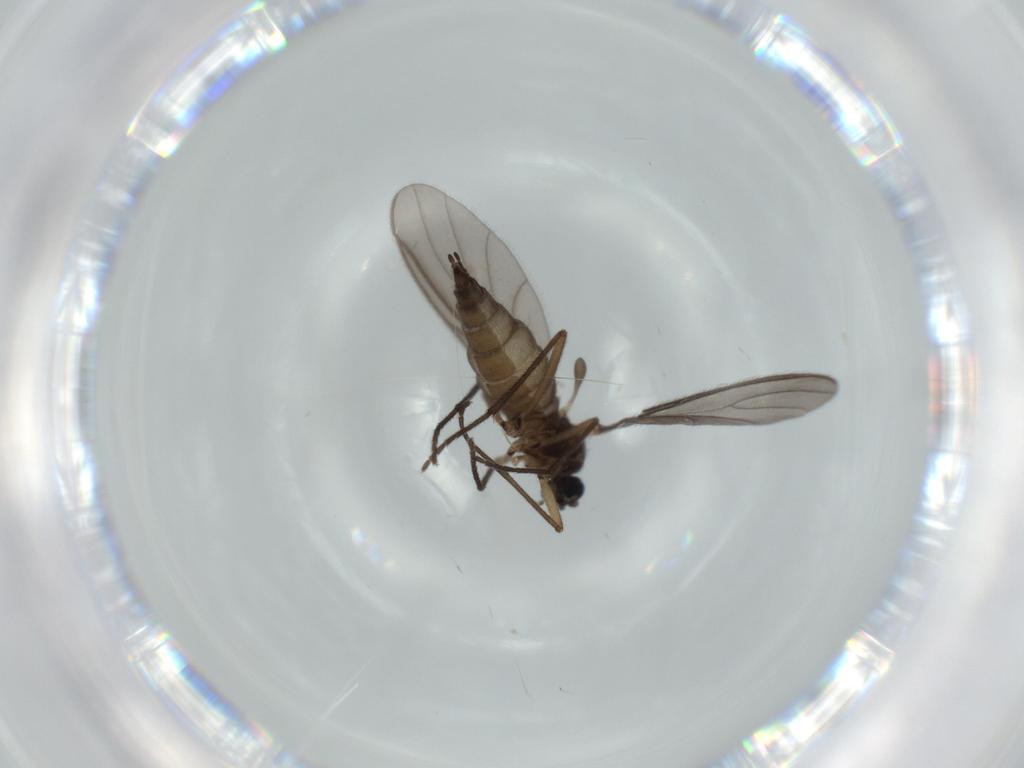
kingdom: Animalia
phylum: Arthropoda
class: Insecta
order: Diptera
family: Sciaridae
